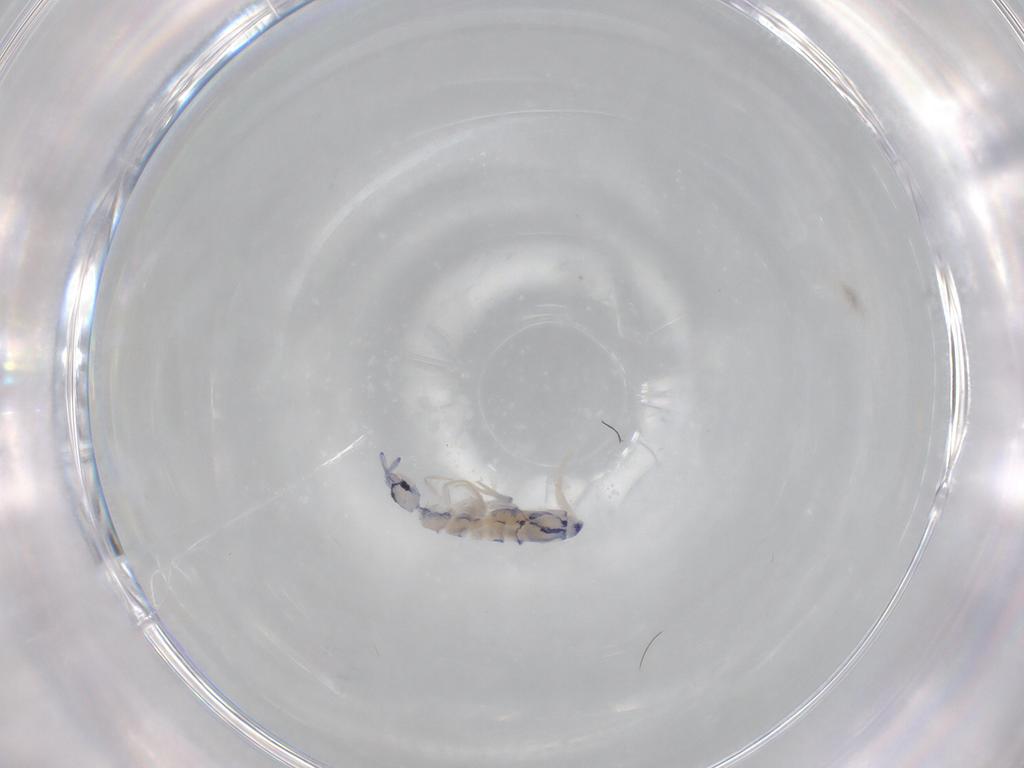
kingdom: Animalia
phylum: Arthropoda
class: Collembola
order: Entomobryomorpha
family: Entomobryidae
